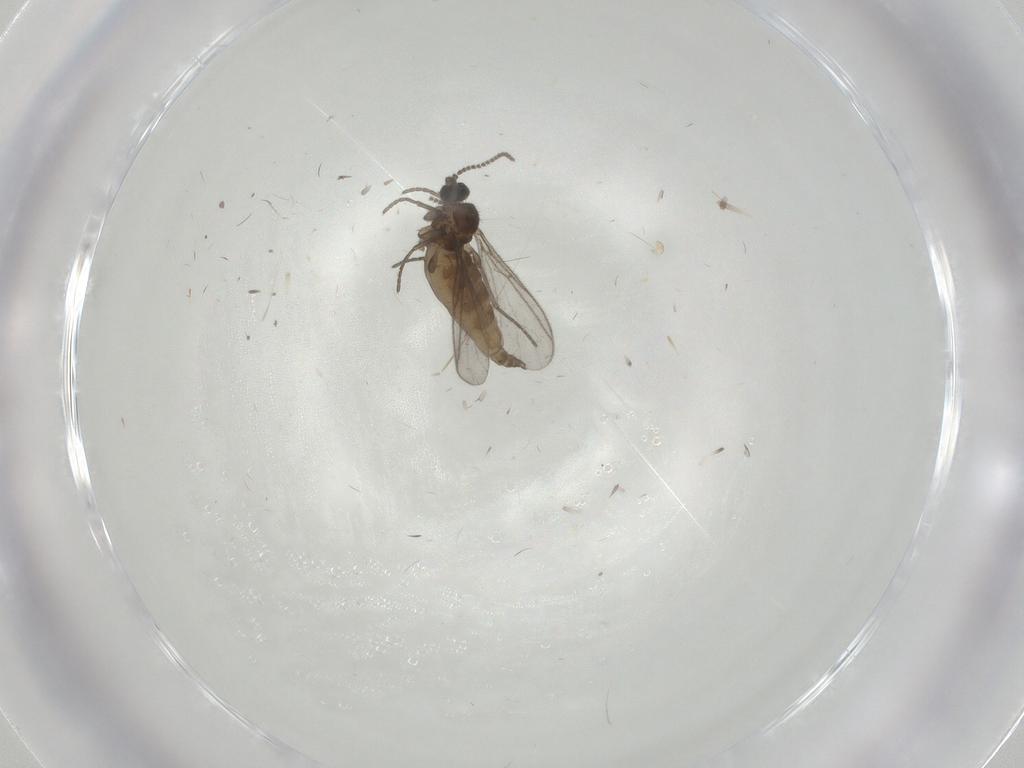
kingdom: Animalia
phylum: Arthropoda
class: Insecta
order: Diptera
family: Sciaridae
